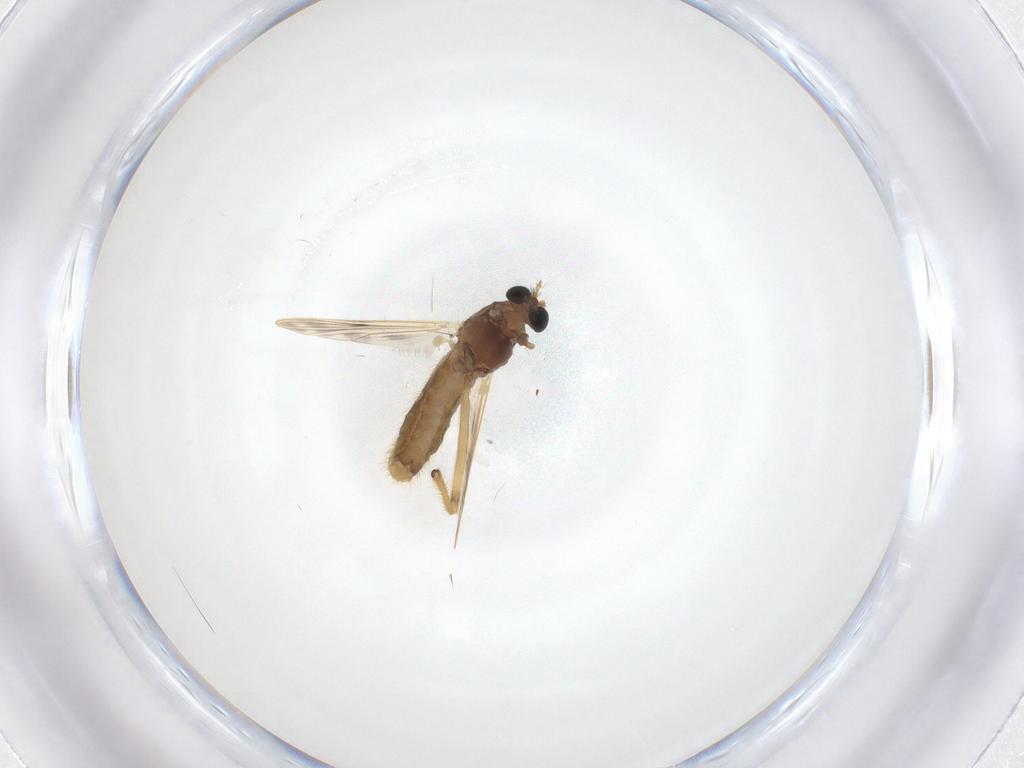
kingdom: Animalia
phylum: Arthropoda
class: Insecta
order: Diptera
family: Chironomidae
